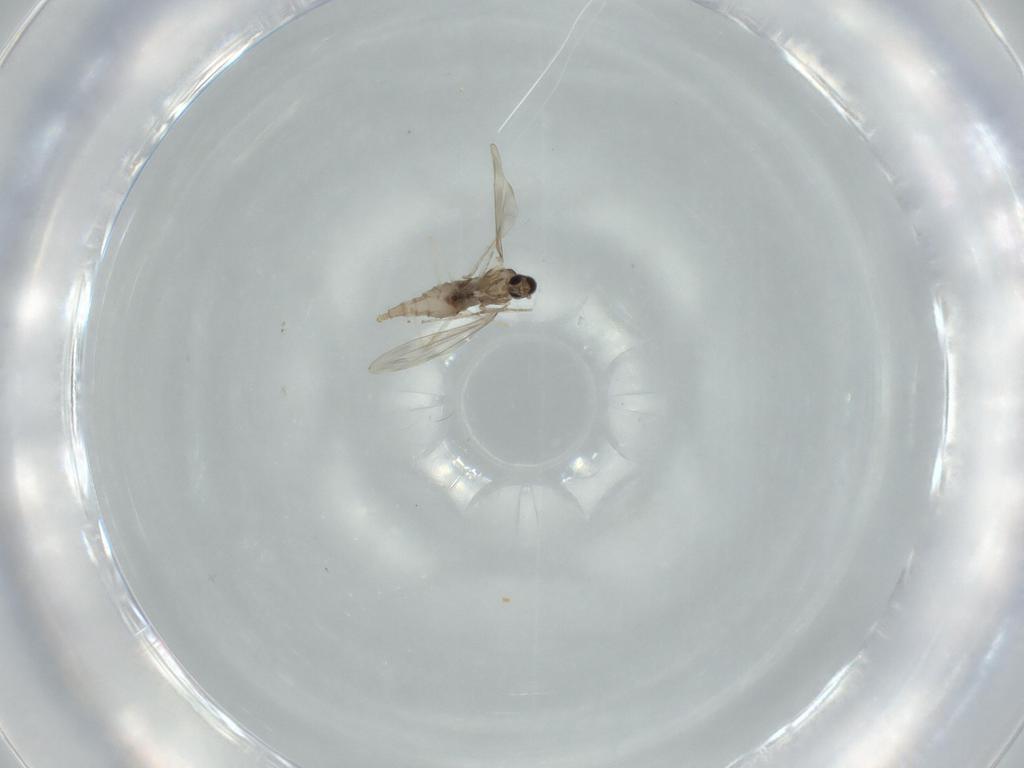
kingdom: Animalia
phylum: Arthropoda
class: Insecta
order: Diptera
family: Cecidomyiidae
